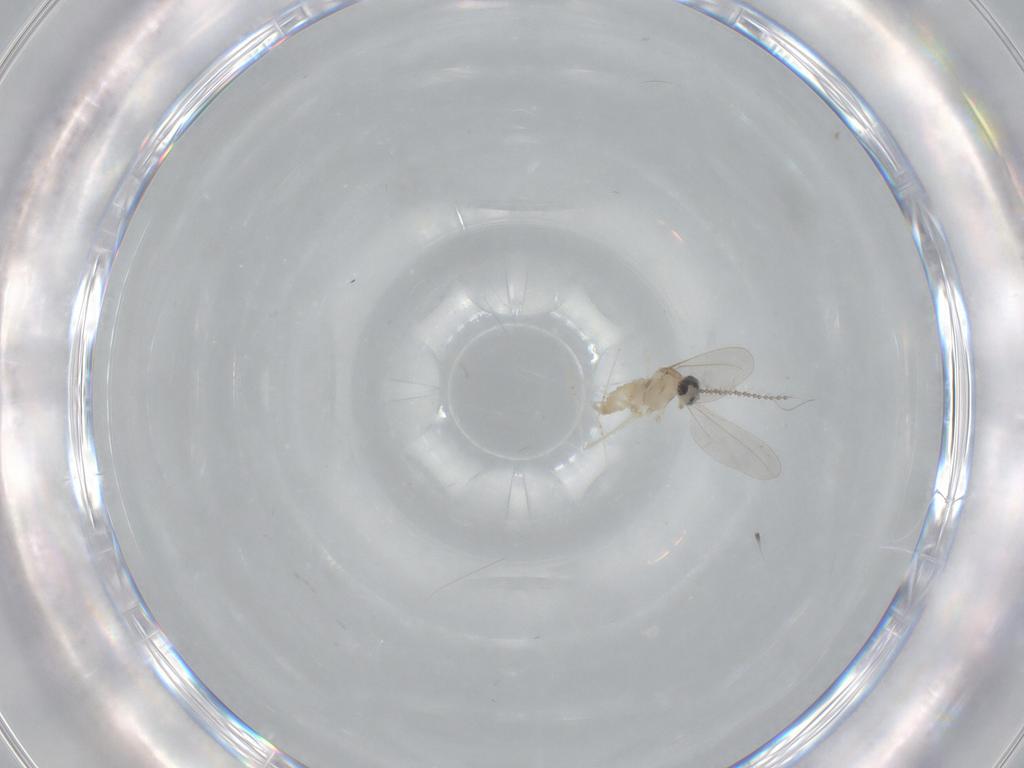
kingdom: Animalia
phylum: Arthropoda
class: Insecta
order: Diptera
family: Cecidomyiidae
